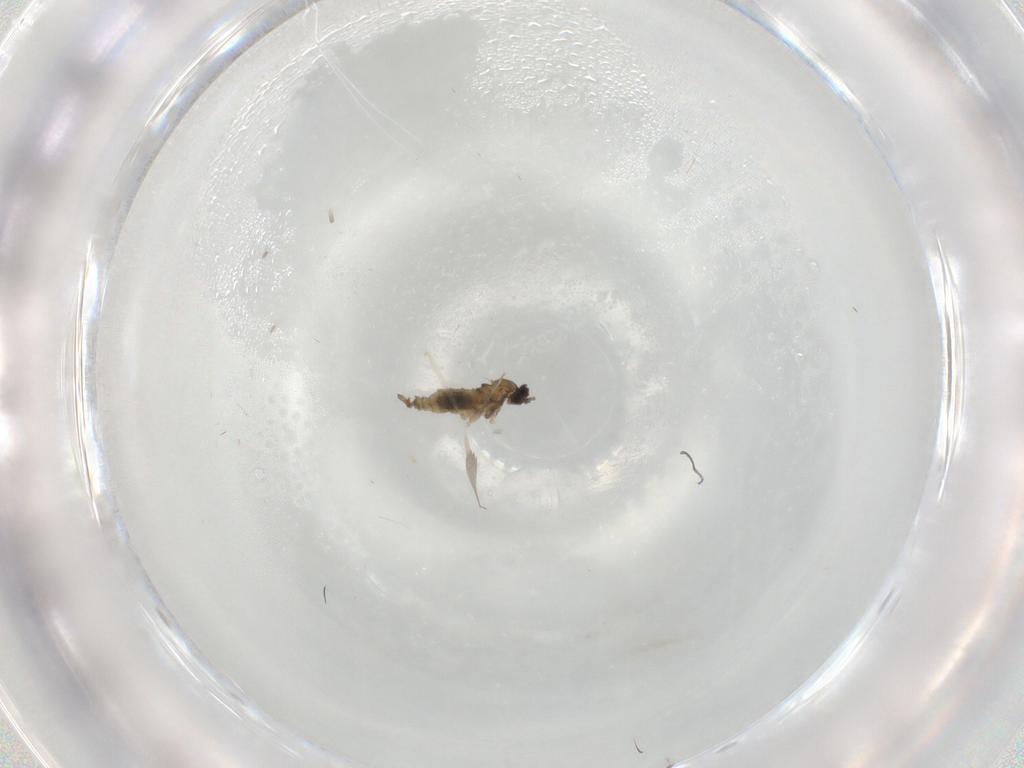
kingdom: Animalia
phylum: Arthropoda
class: Insecta
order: Diptera
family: Cecidomyiidae
